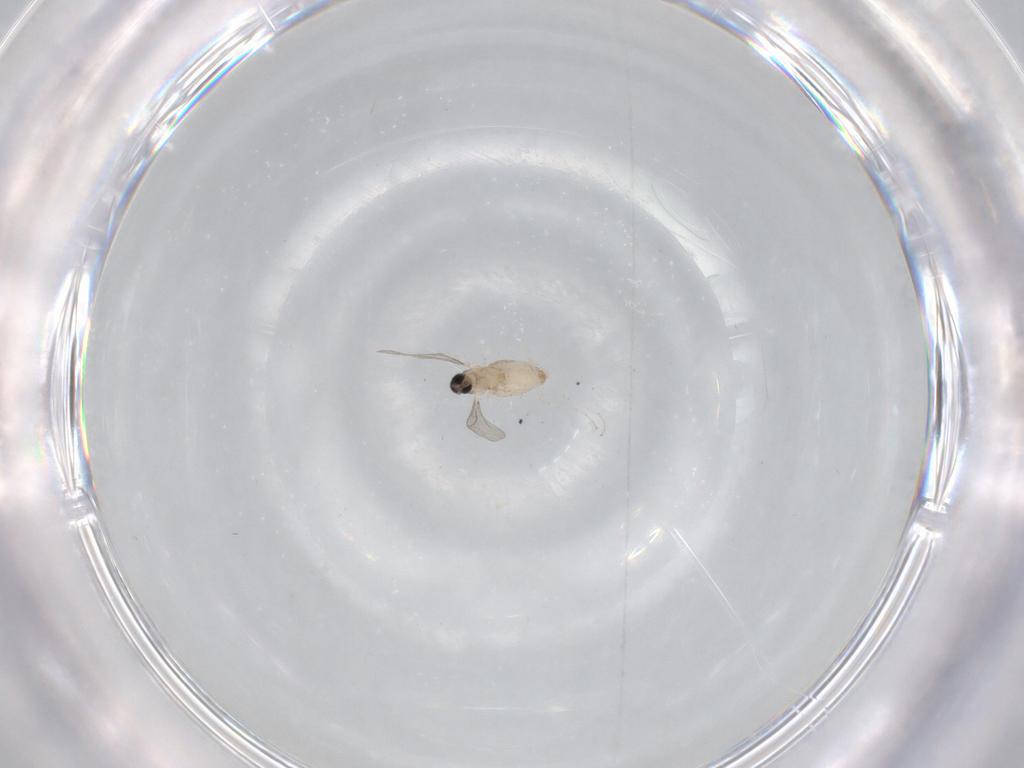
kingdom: Animalia
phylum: Arthropoda
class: Insecta
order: Diptera
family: Cecidomyiidae
